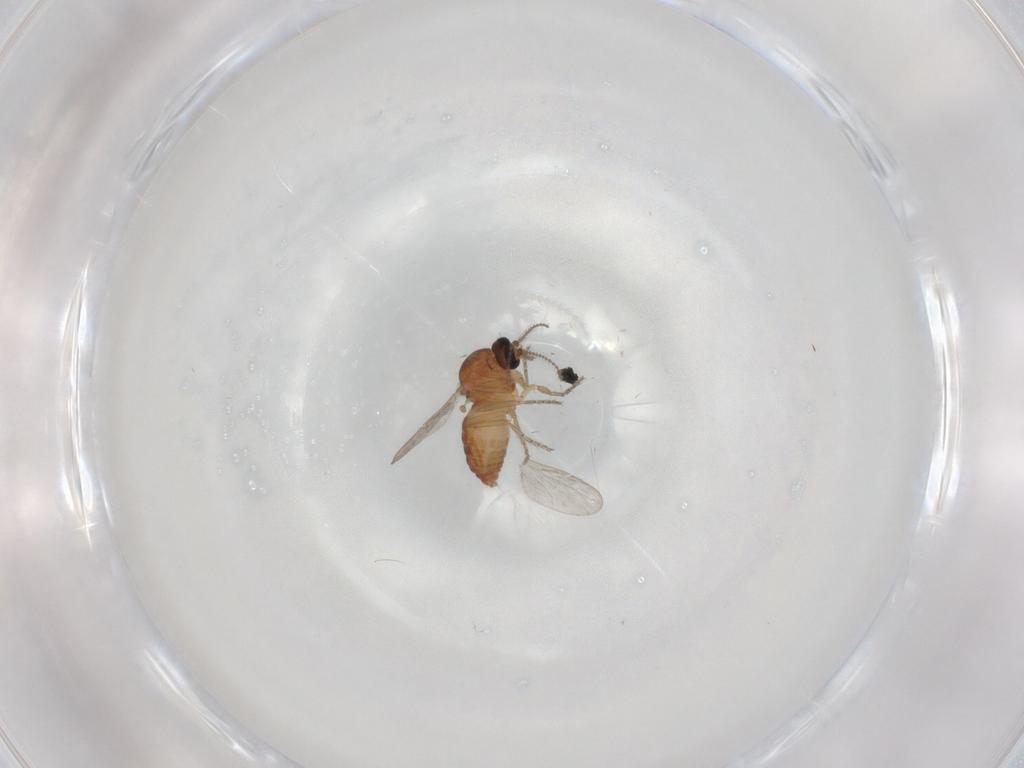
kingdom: Animalia
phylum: Arthropoda
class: Insecta
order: Diptera
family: Ceratopogonidae
